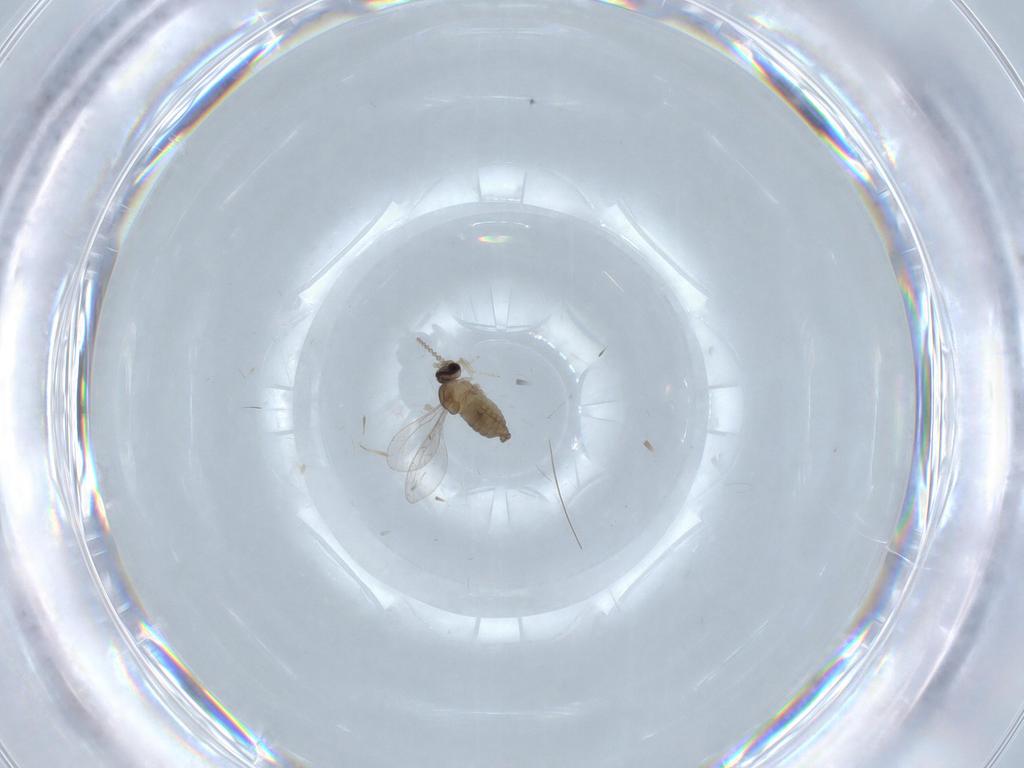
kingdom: Animalia
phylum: Arthropoda
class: Insecta
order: Diptera
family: Cecidomyiidae
